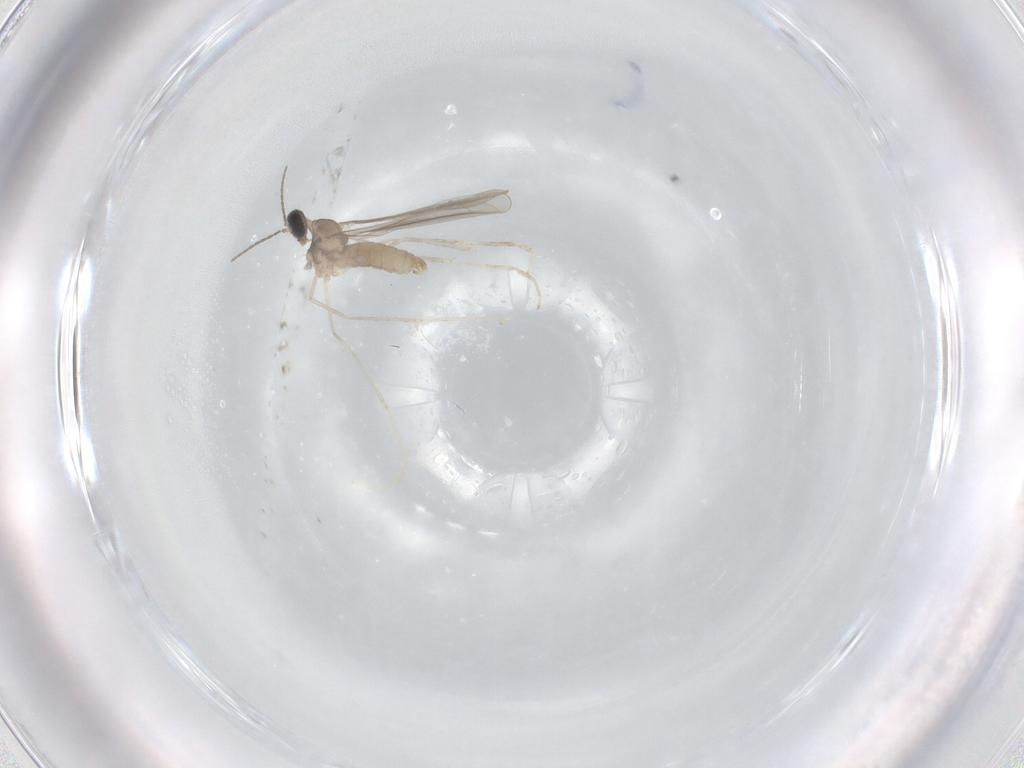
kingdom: Animalia
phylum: Arthropoda
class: Insecta
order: Diptera
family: Cecidomyiidae
